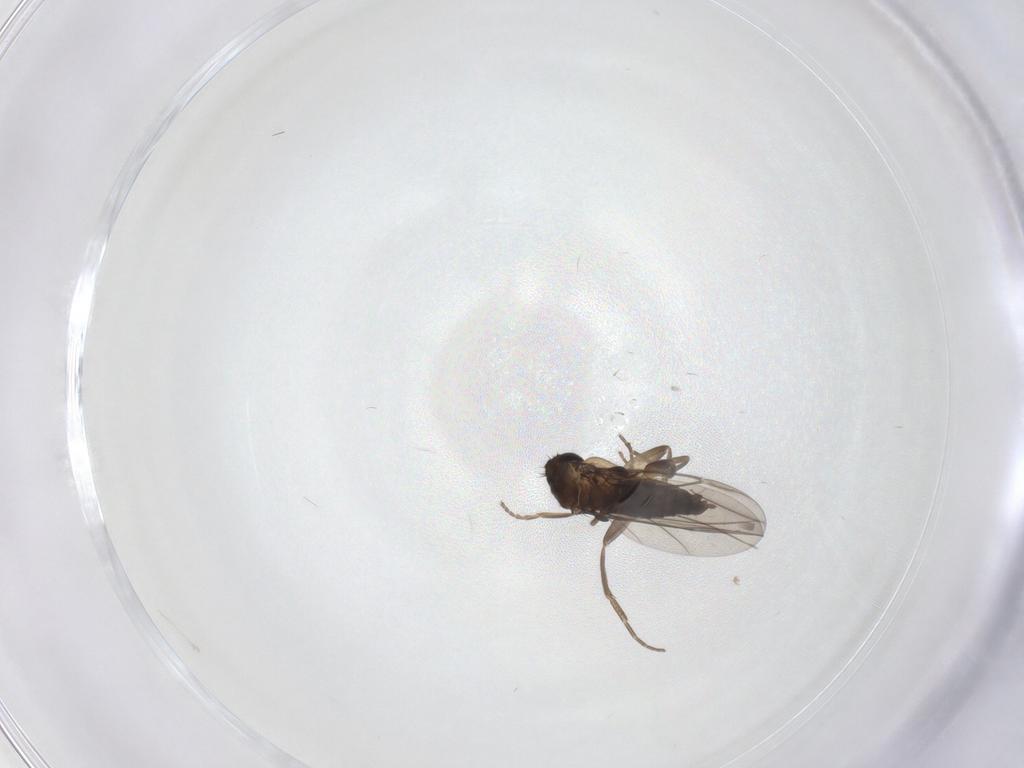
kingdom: Animalia
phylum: Arthropoda
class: Insecta
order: Diptera
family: Phoridae
